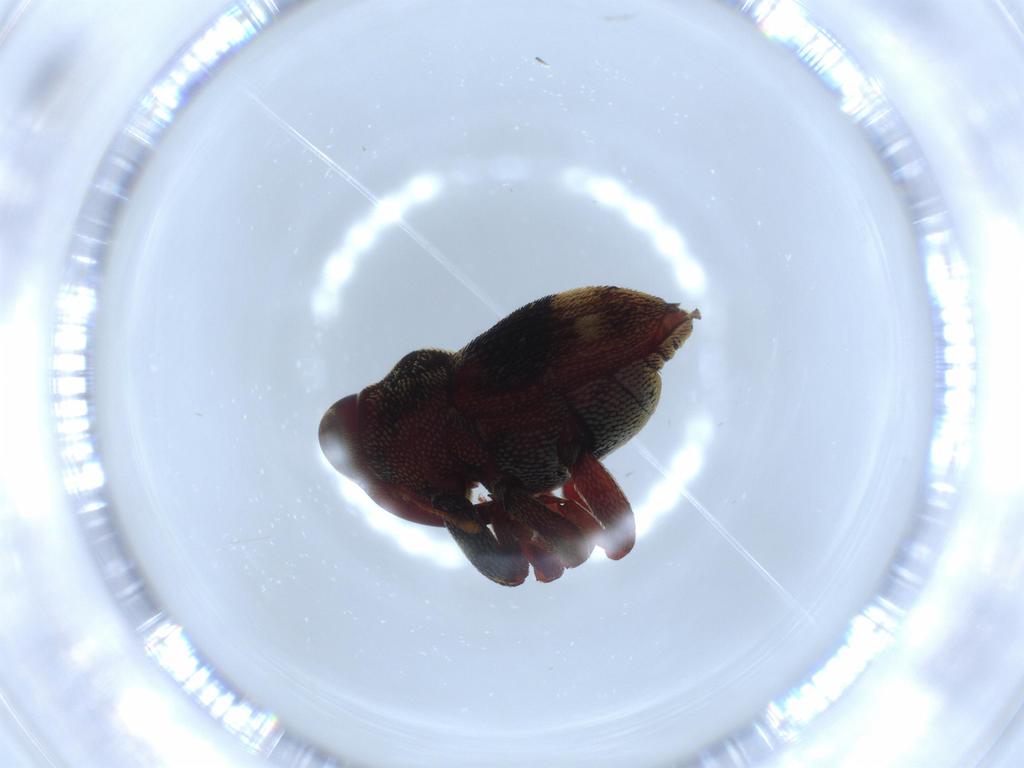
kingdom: Animalia
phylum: Arthropoda
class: Insecta
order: Coleoptera
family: Curculionidae
